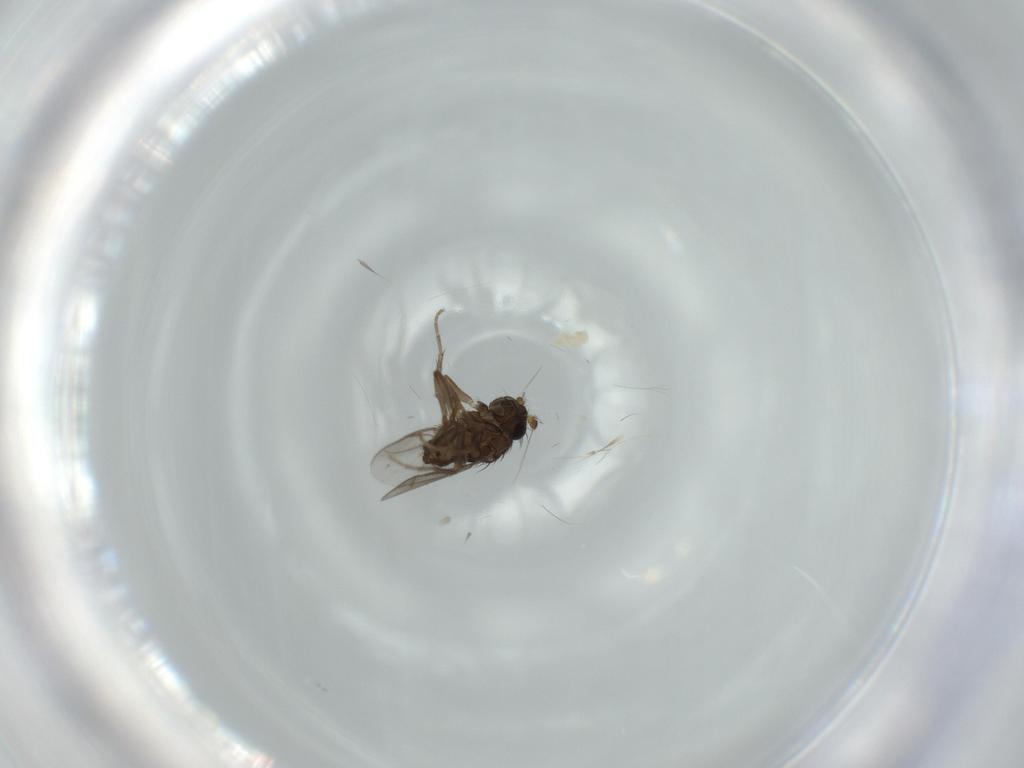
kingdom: Animalia
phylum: Arthropoda
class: Insecta
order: Diptera
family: Sphaeroceridae
